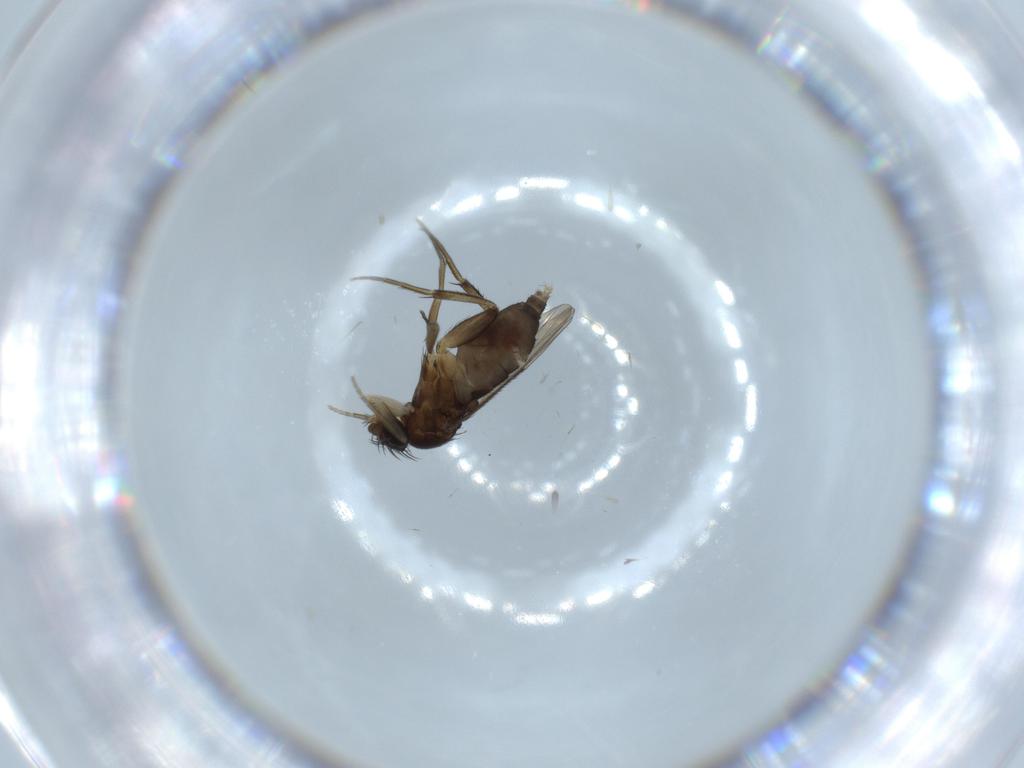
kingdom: Animalia
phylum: Arthropoda
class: Insecta
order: Diptera
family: Phoridae
